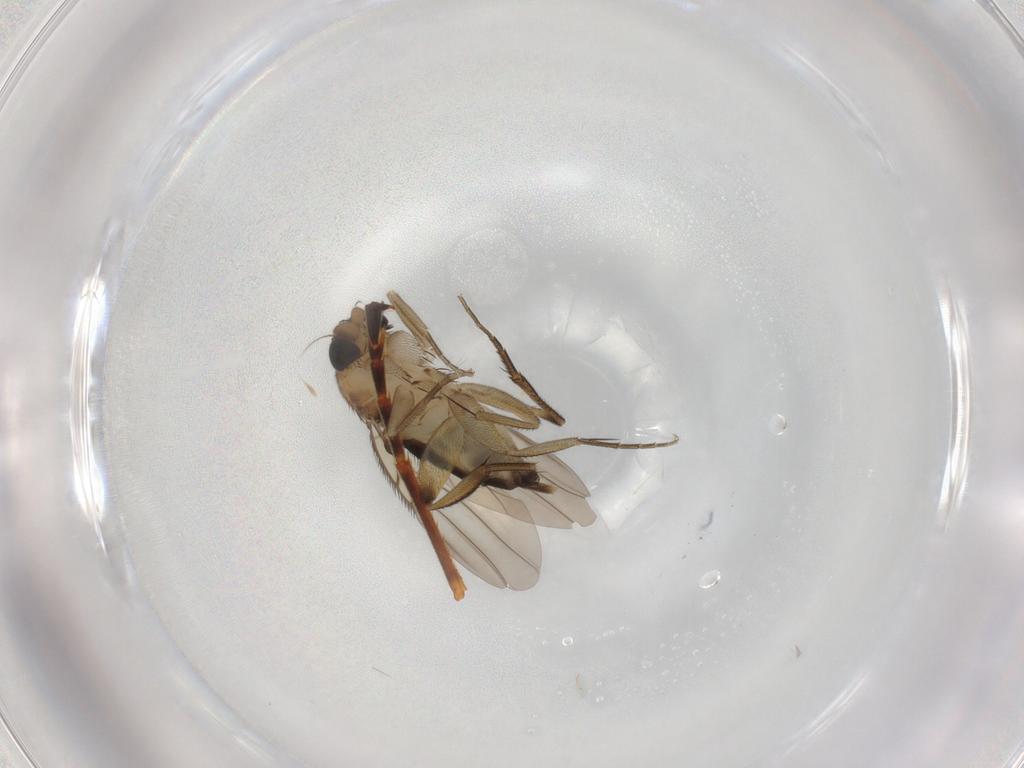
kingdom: Animalia
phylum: Arthropoda
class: Insecta
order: Diptera
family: Phoridae
